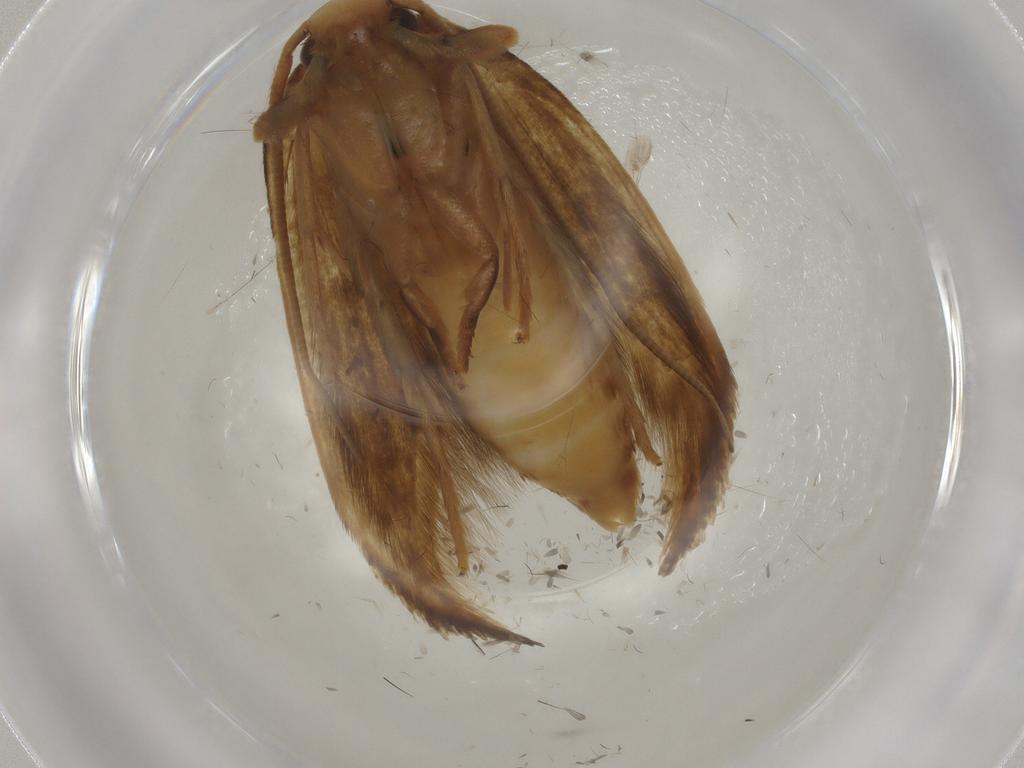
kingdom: Animalia
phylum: Arthropoda
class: Insecta
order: Lepidoptera
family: Tineidae
